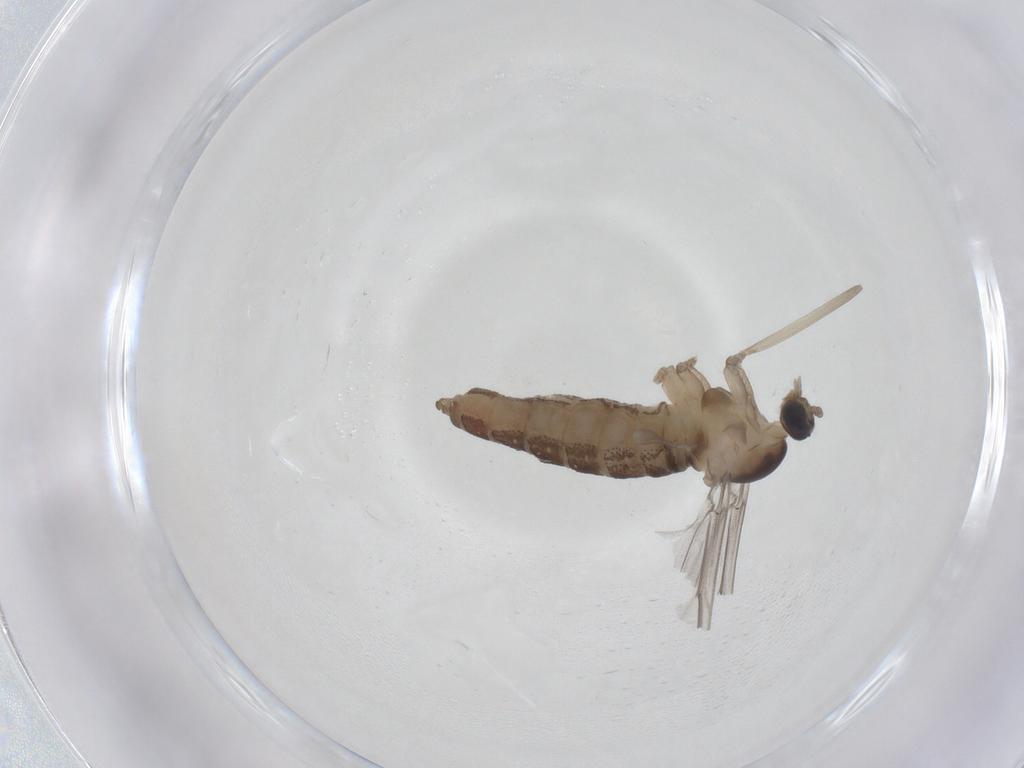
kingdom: Animalia
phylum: Arthropoda
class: Insecta
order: Diptera
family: Cecidomyiidae
